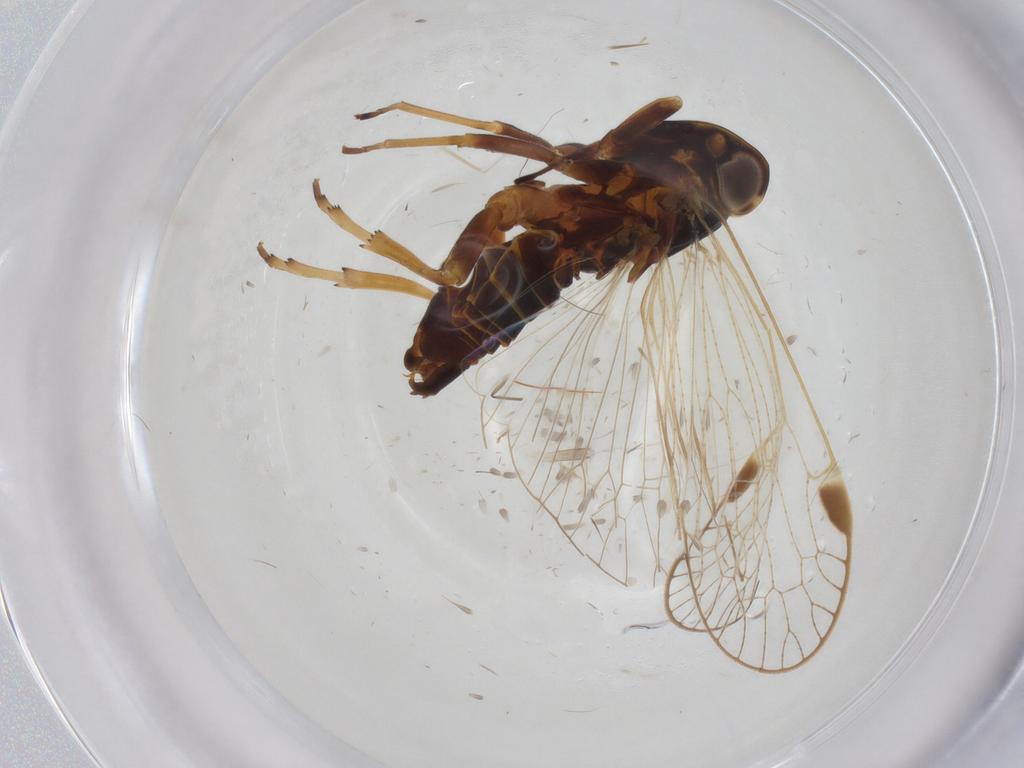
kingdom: Animalia
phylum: Arthropoda
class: Insecta
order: Hemiptera
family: Cixiidae
